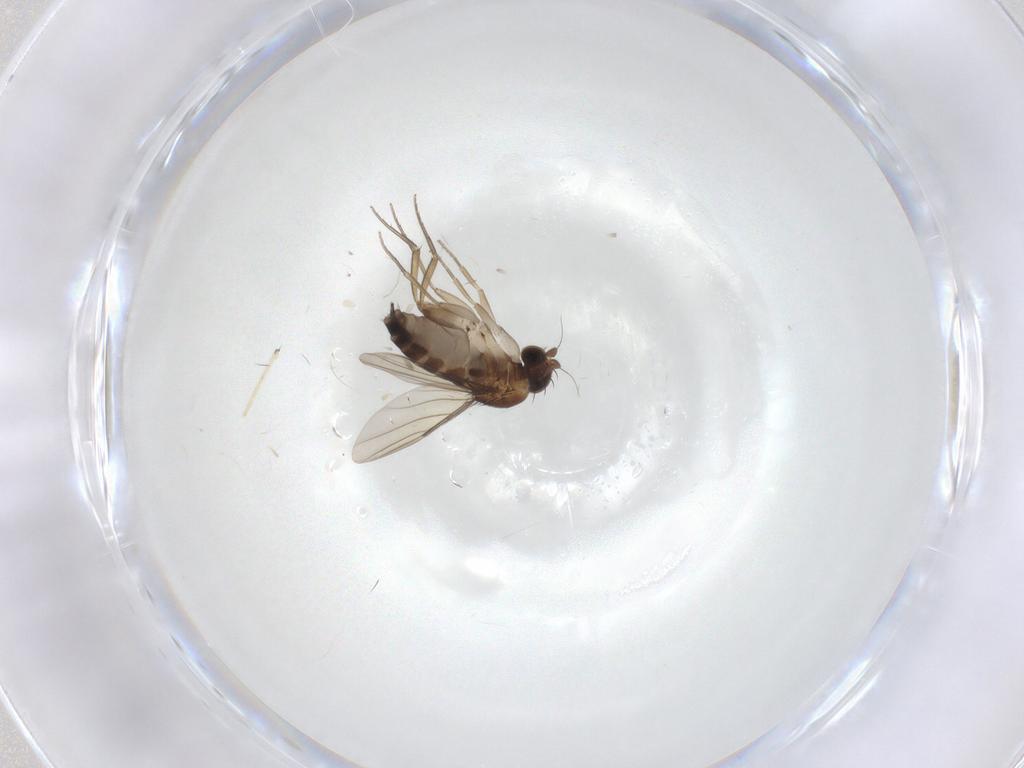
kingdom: Animalia
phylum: Arthropoda
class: Insecta
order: Diptera
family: Phoridae
